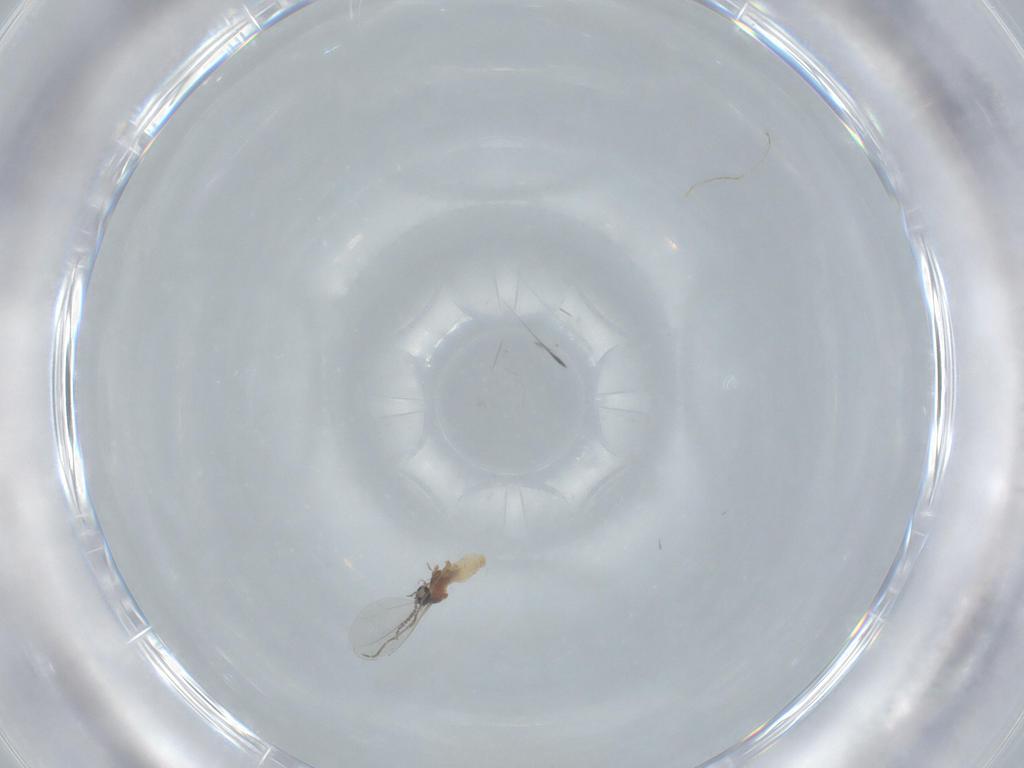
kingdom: Animalia
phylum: Arthropoda
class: Insecta
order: Diptera
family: Cecidomyiidae
